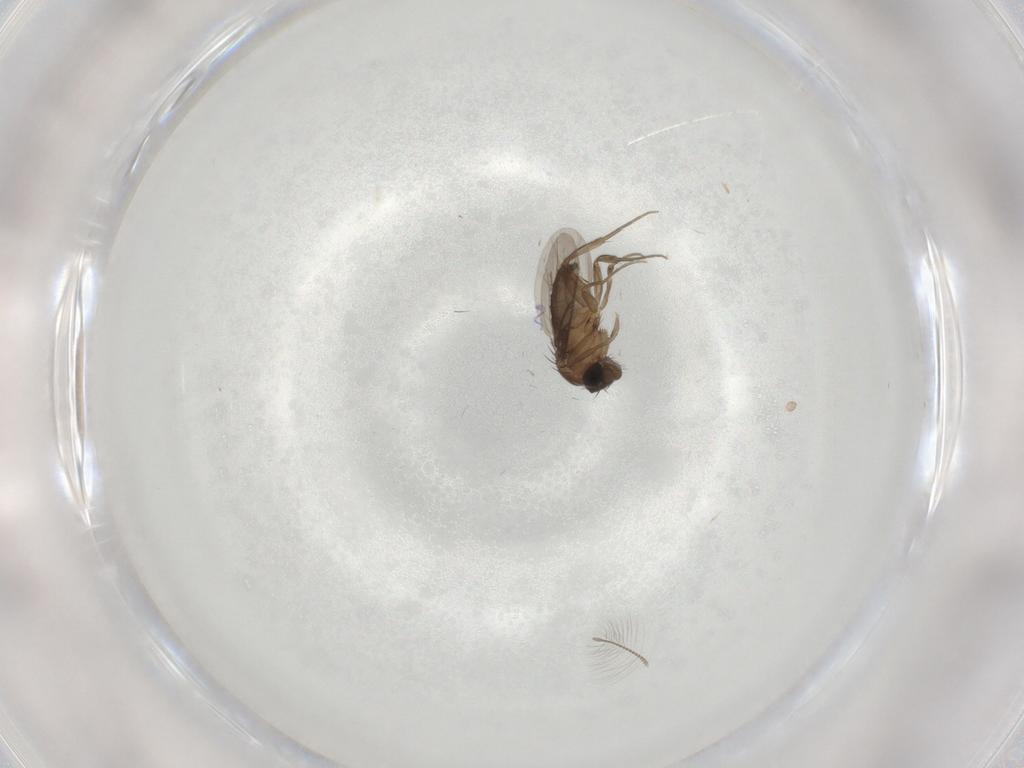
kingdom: Animalia
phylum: Arthropoda
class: Insecta
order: Diptera
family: Phoridae
